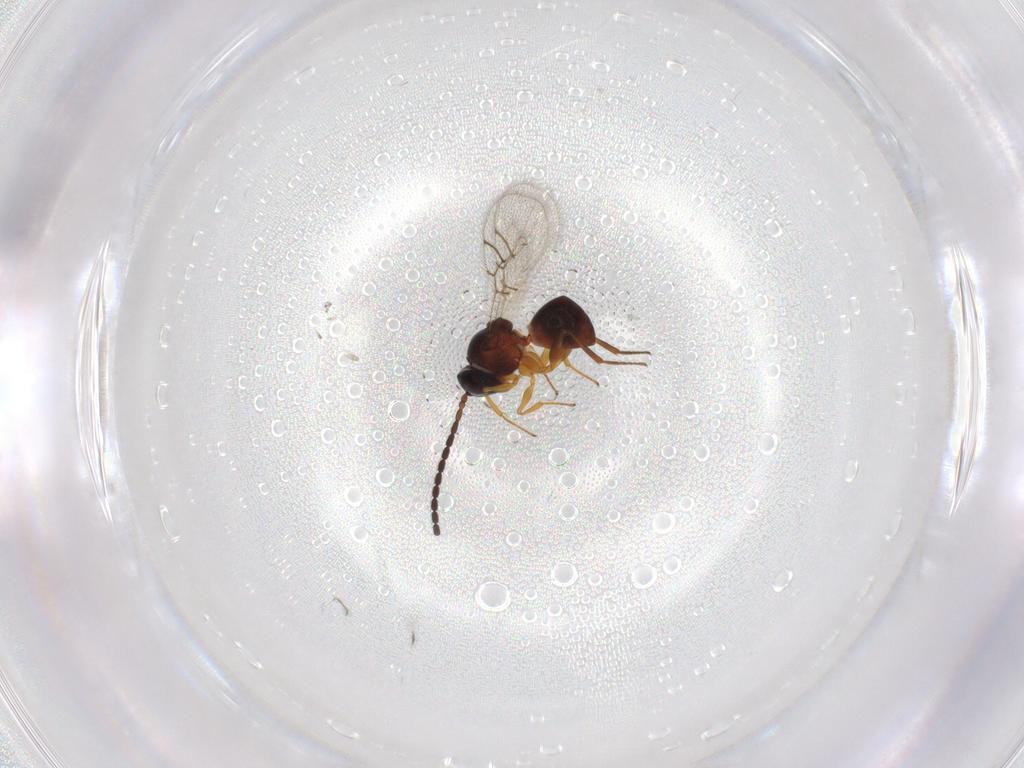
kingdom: Animalia
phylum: Arthropoda
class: Insecta
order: Hymenoptera
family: Figitidae
